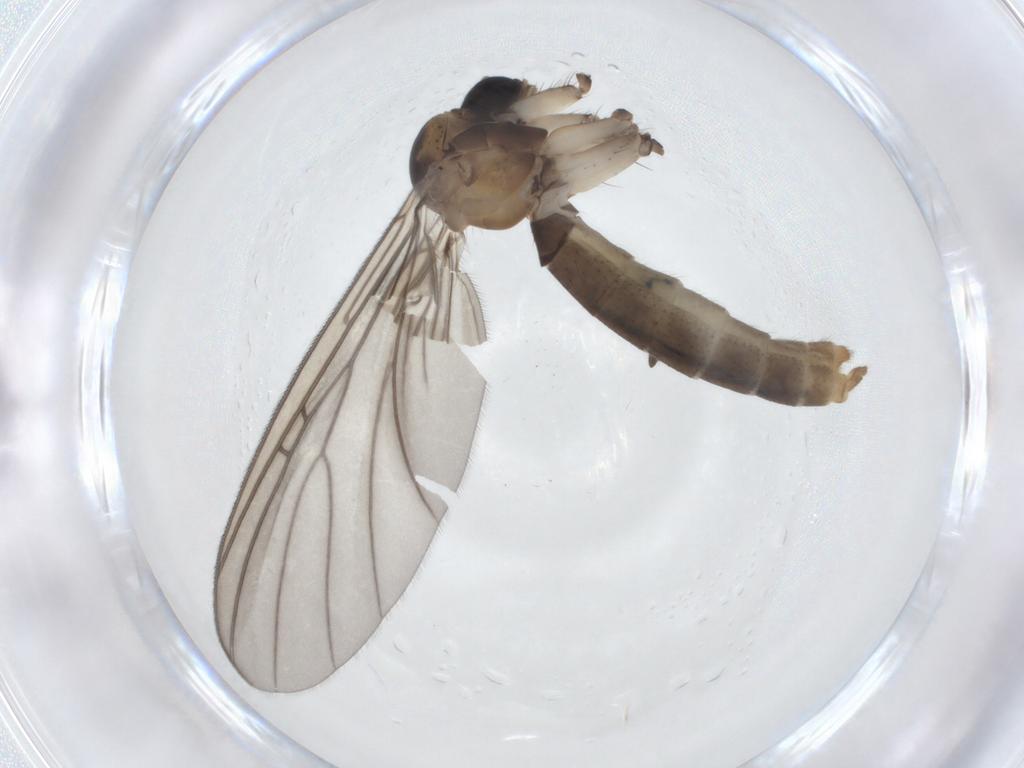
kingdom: Animalia
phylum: Arthropoda
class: Insecta
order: Diptera
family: Mycetophilidae
